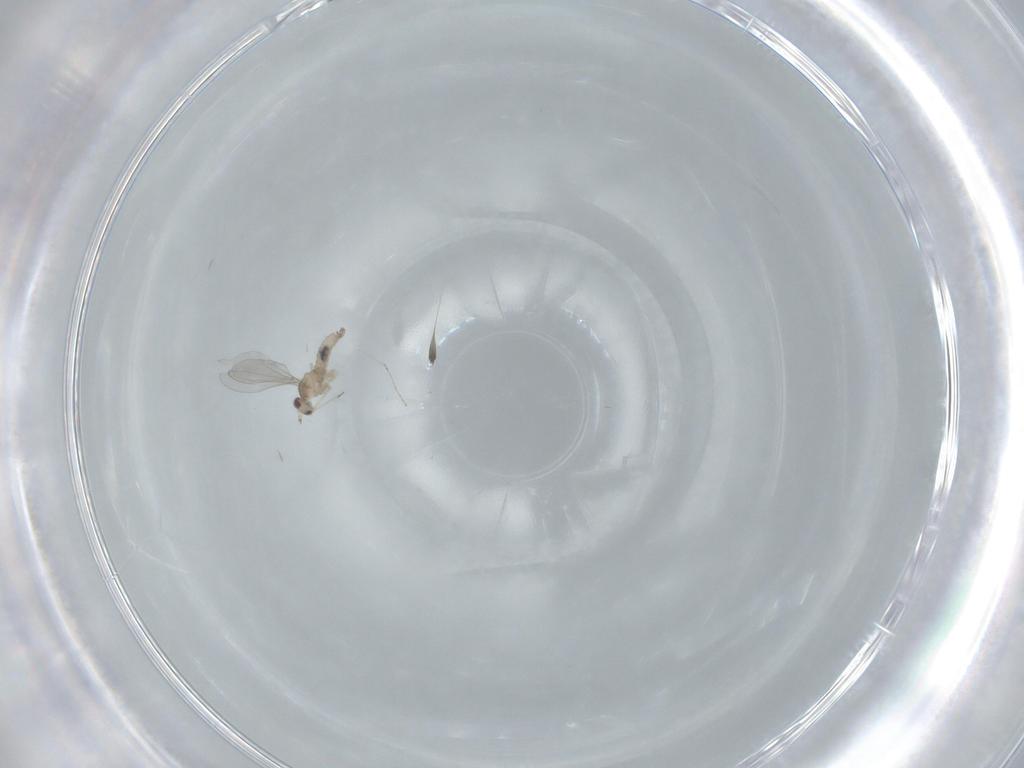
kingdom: Animalia
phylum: Arthropoda
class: Insecta
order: Diptera
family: Cecidomyiidae
